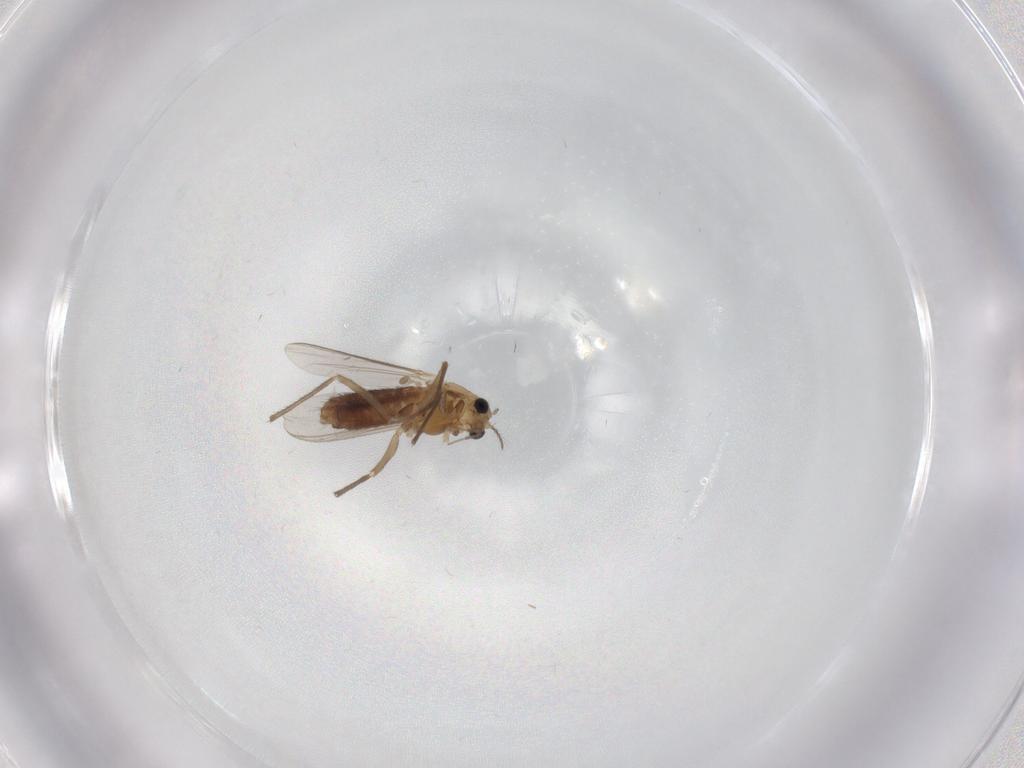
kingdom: Animalia
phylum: Arthropoda
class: Insecta
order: Diptera
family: Chironomidae
